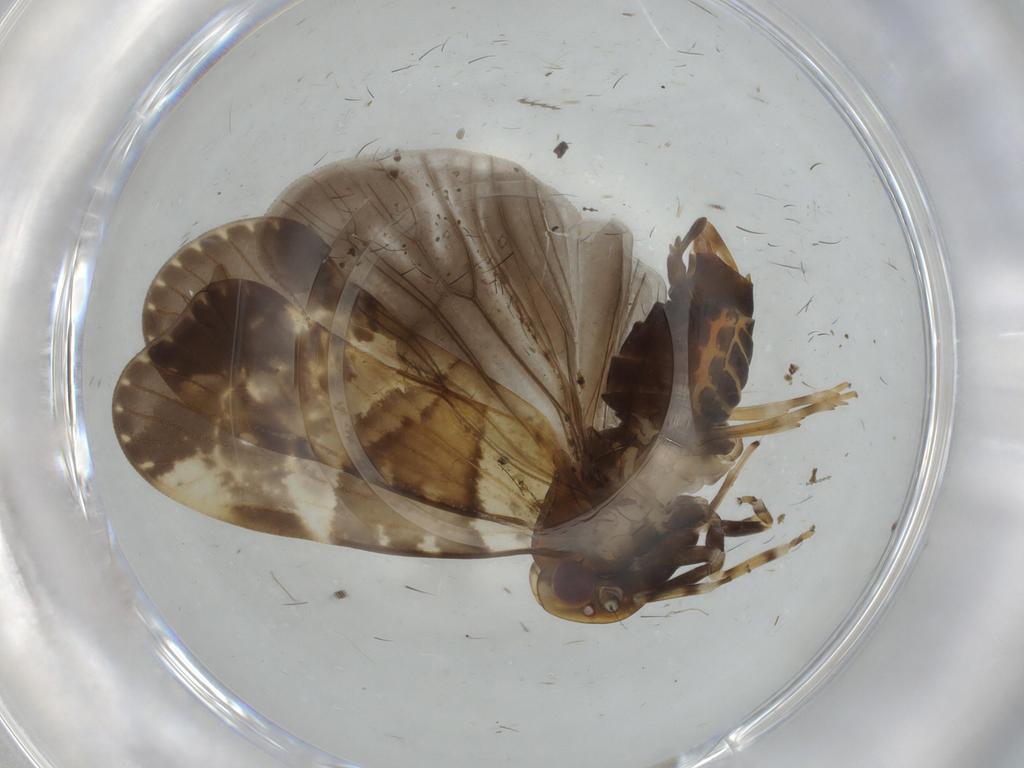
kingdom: Animalia
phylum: Arthropoda
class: Insecta
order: Hemiptera
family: Cixiidae
